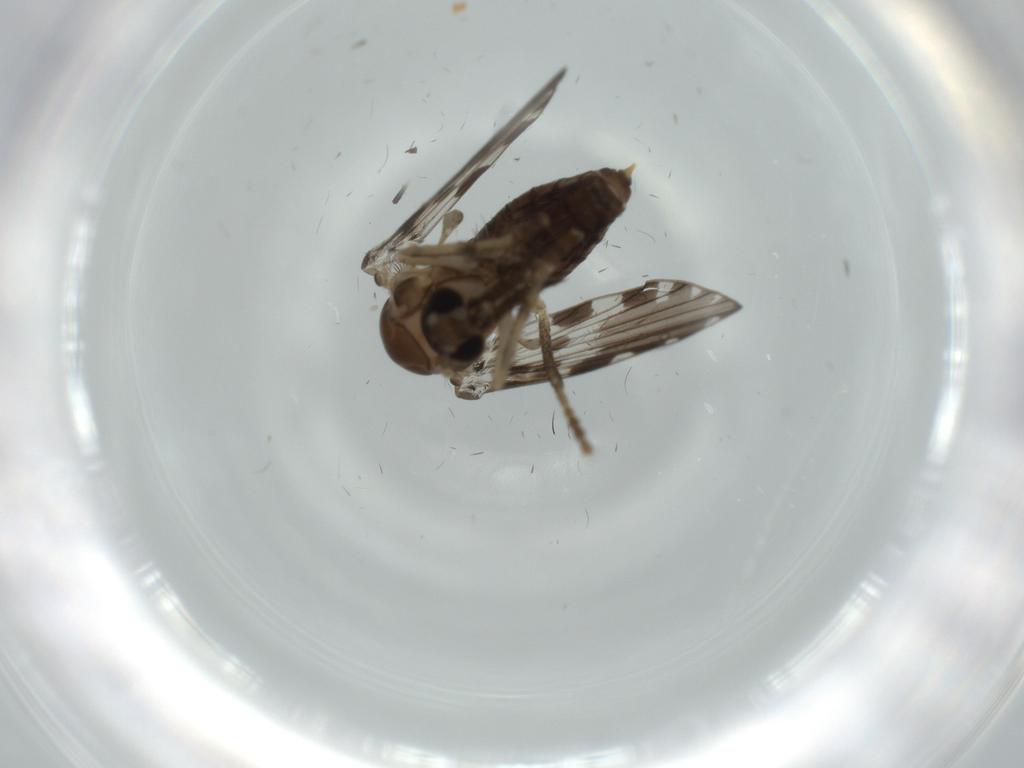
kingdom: Animalia
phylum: Arthropoda
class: Insecta
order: Diptera
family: Psychodidae
